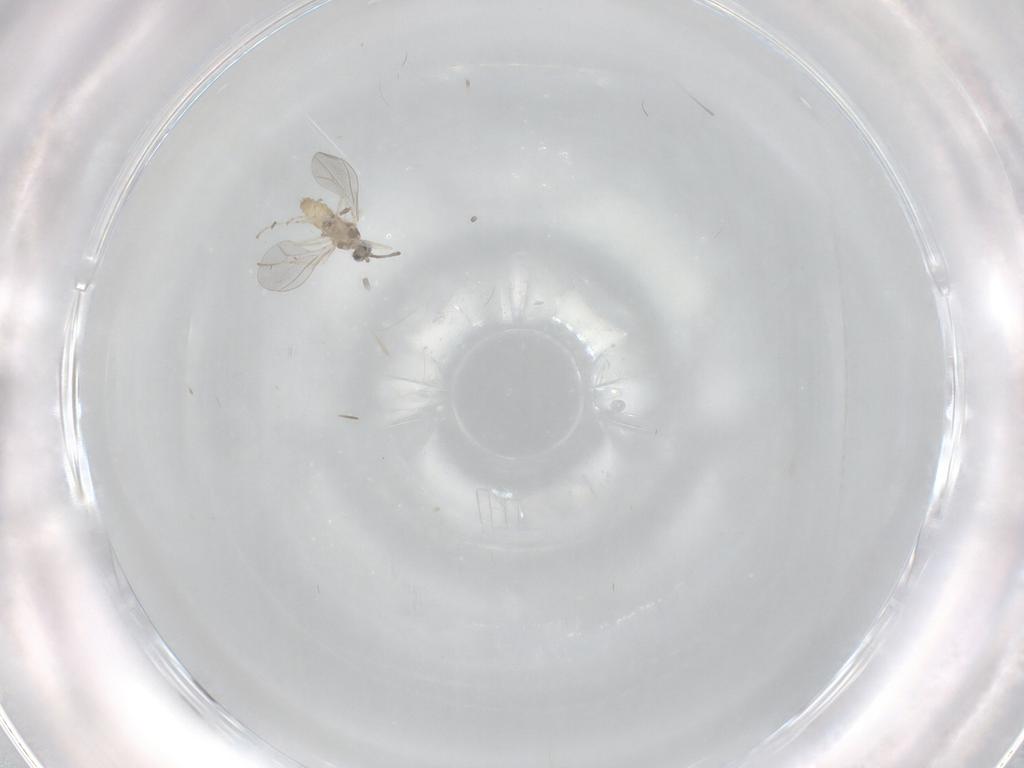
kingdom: Animalia
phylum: Arthropoda
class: Insecta
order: Diptera
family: Cecidomyiidae
